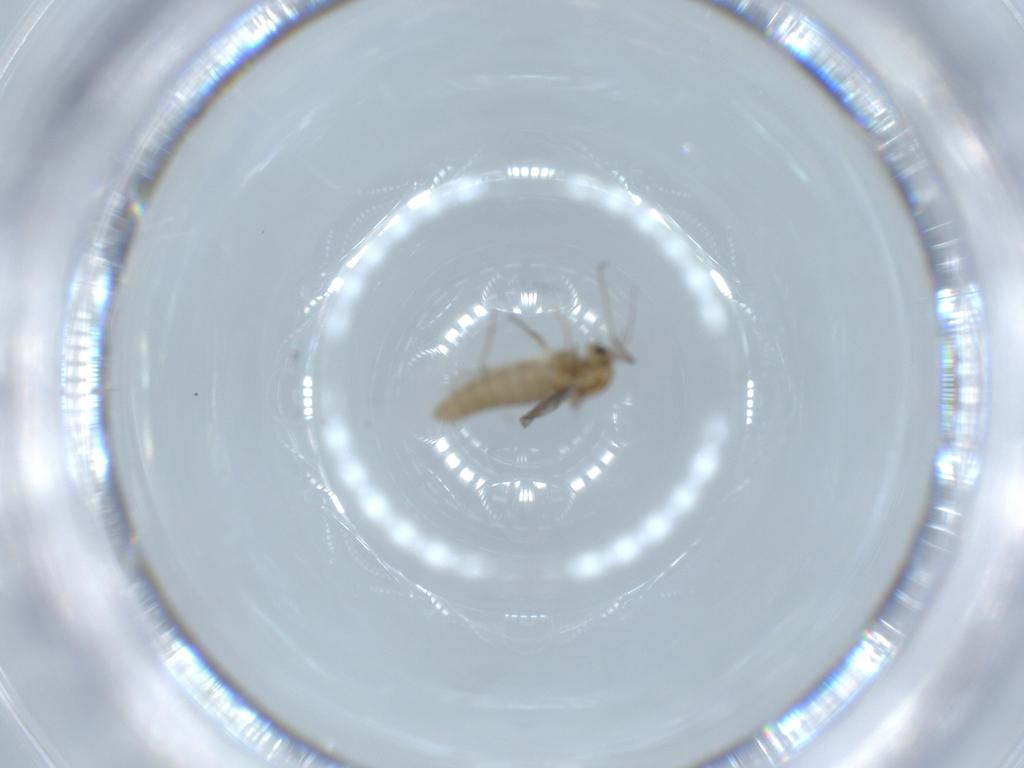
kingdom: Animalia
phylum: Arthropoda
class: Insecta
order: Diptera
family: Chironomidae
